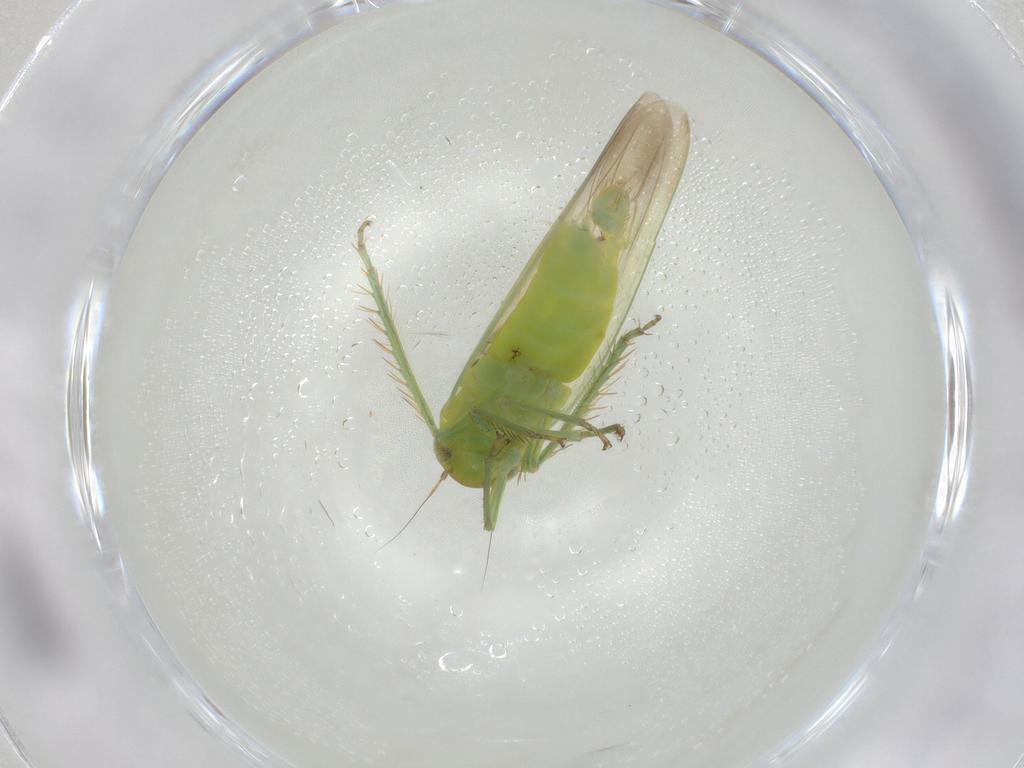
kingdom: Animalia
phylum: Arthropoda
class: Insecta
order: Hemiptera
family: Cicadellidae
